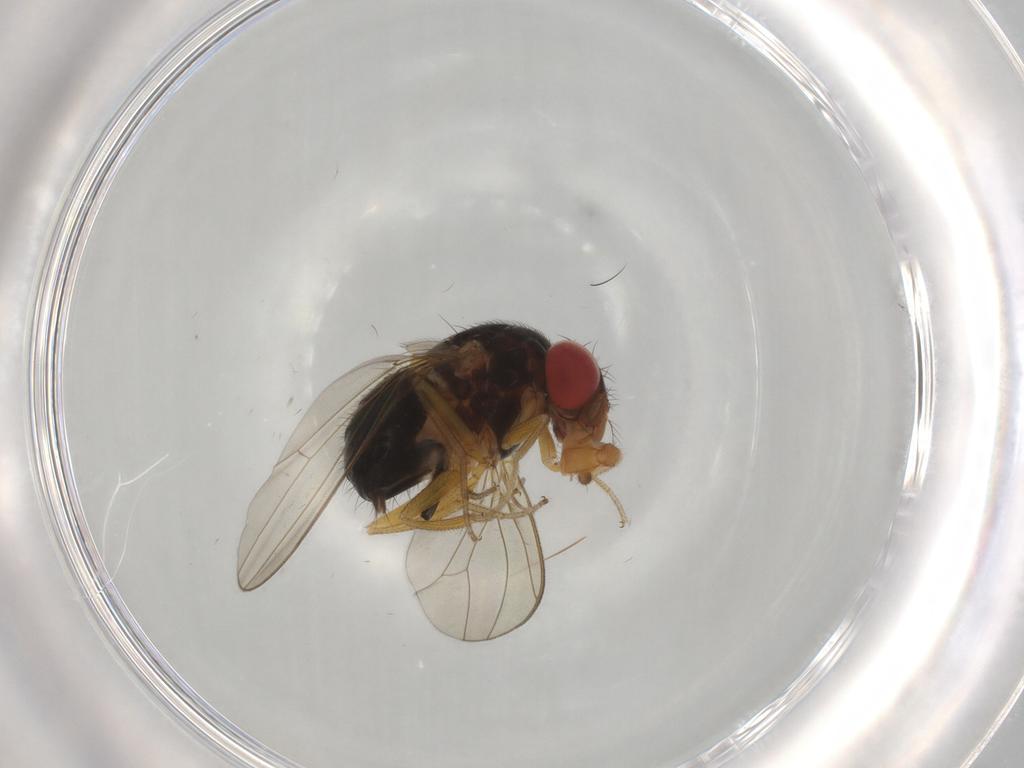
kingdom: Animalia
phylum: Arthropoda
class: Insecta
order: Diptera
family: Drosophilidae
